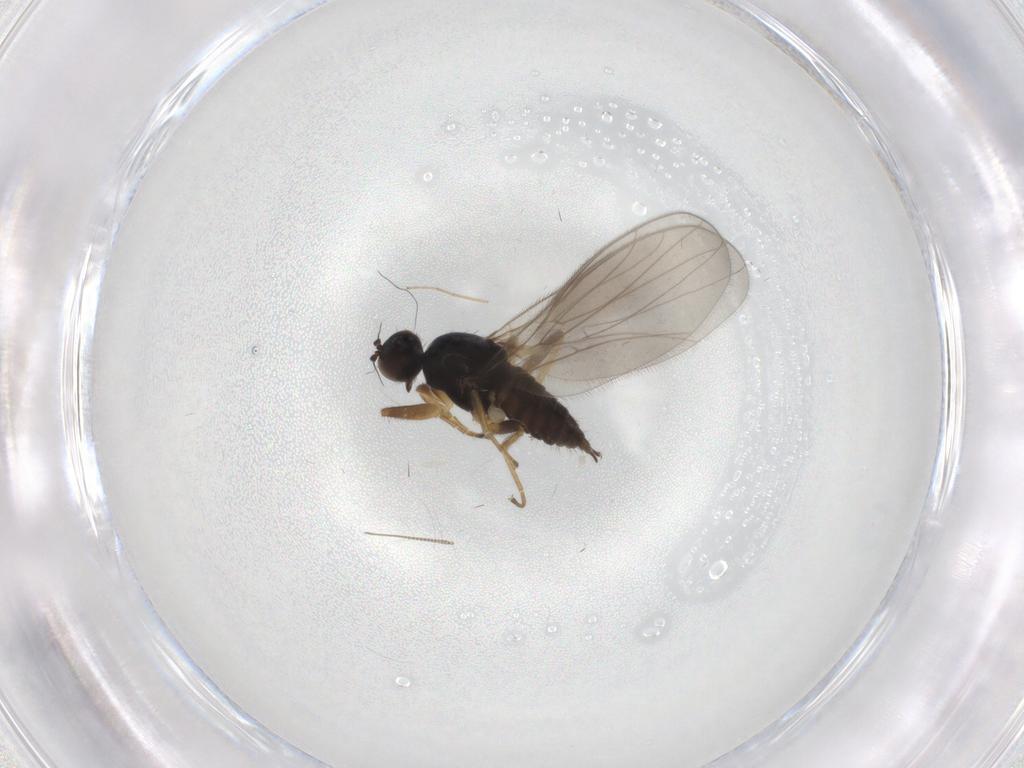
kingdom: Animalia
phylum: Arthropoda
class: Insecta
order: Diptera
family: Hybotidae
